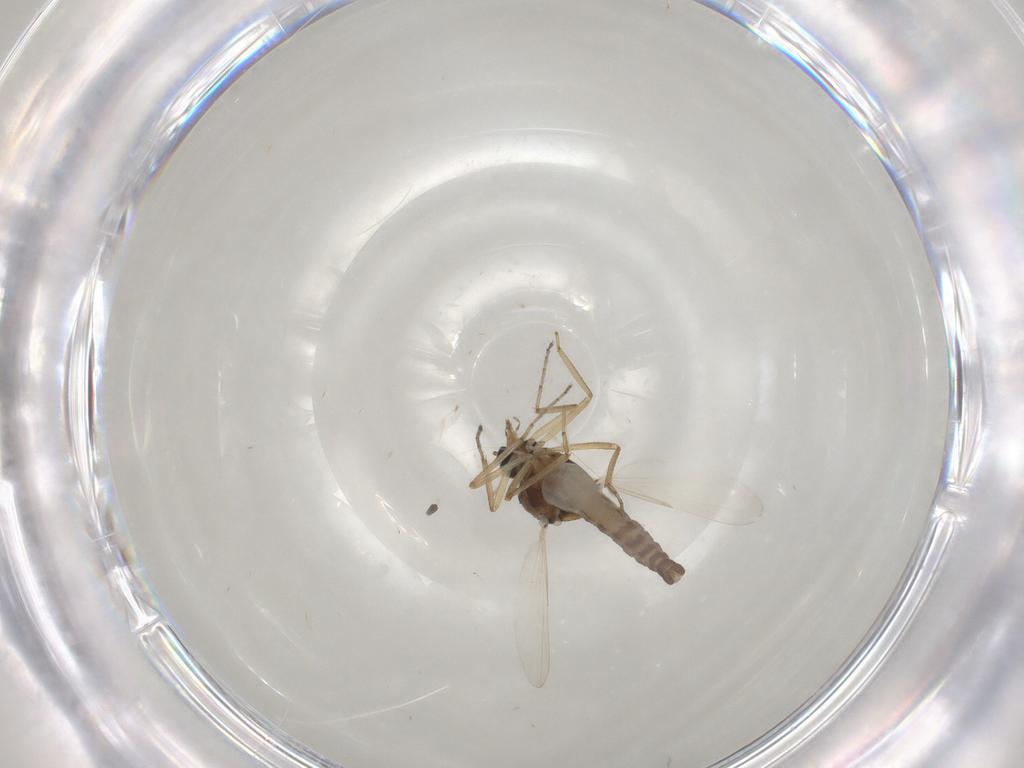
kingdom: Animalia
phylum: Arthropoda
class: Insecta
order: Diptera
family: Ceratopogonidae
